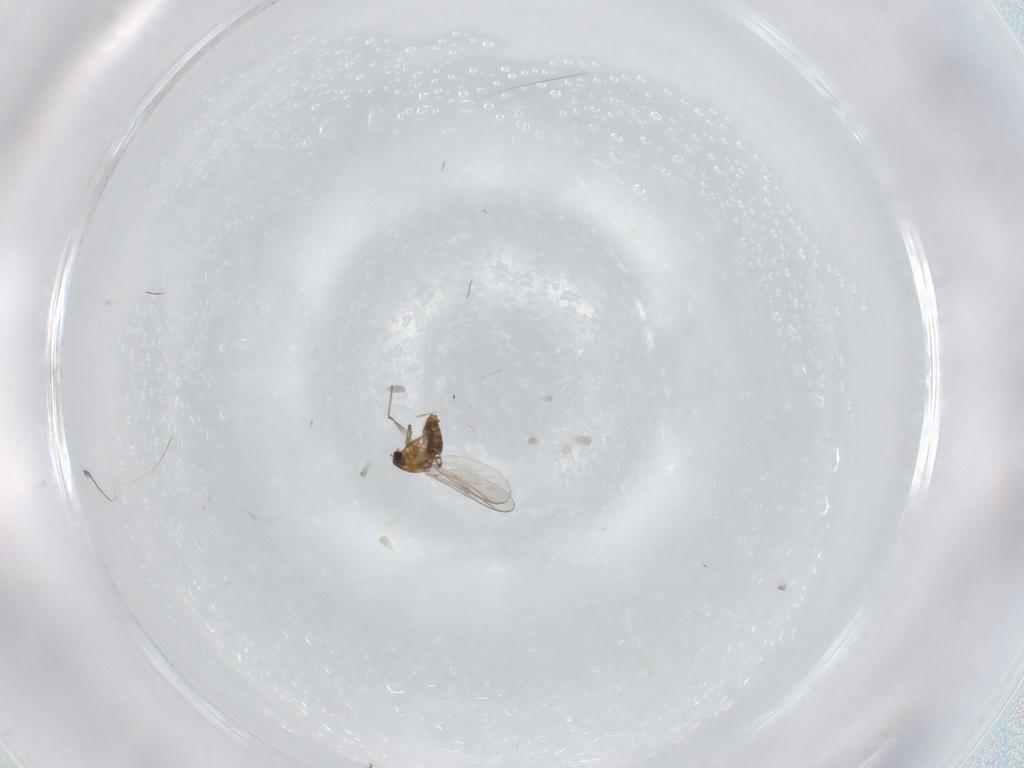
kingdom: Animalia
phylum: Arthropoda
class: Insecta
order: Diptera
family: Chironomidae
